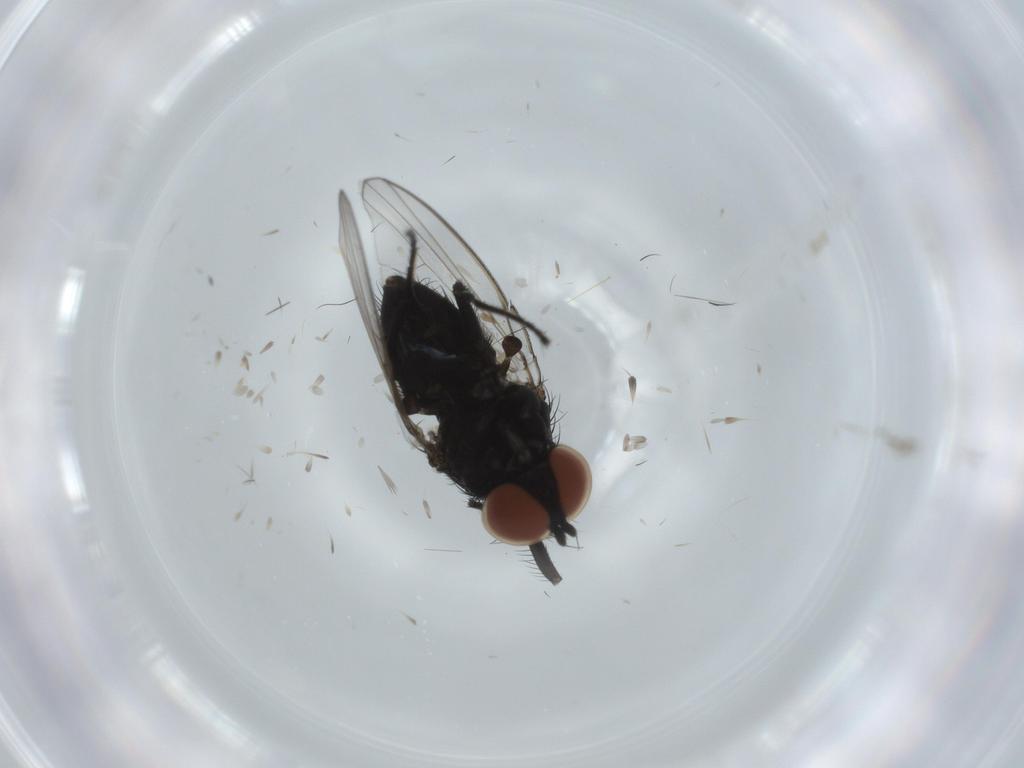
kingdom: Animalia
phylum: Arthropoda
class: Insecta
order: Diptera
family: Milichiidae
